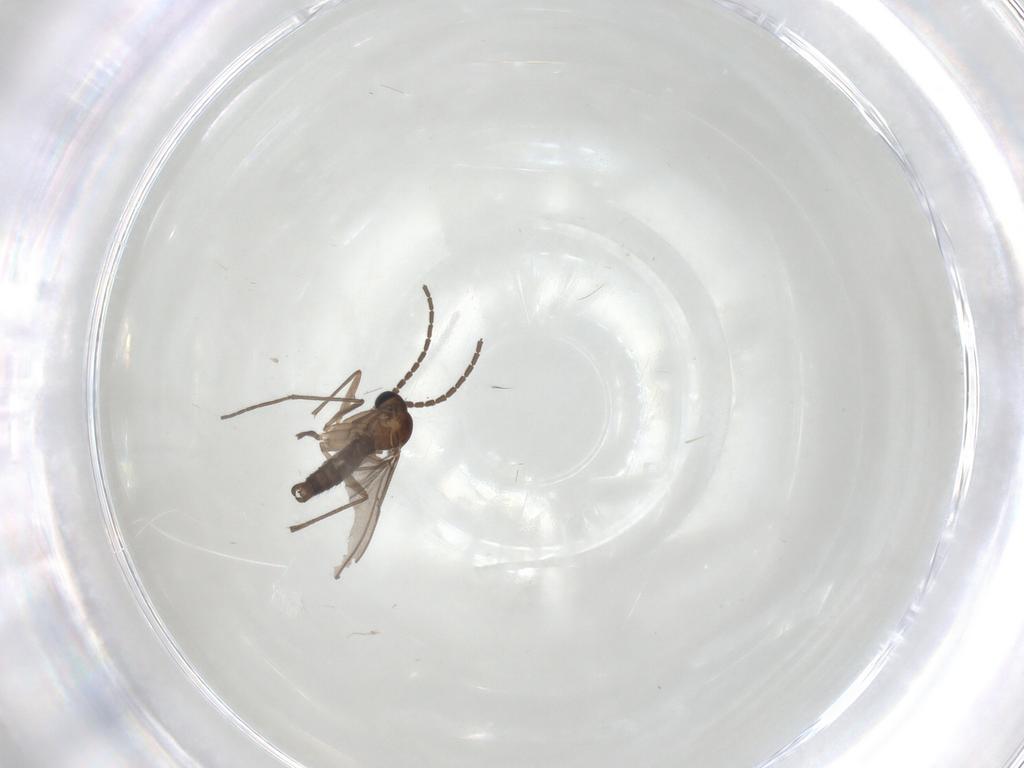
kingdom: Animalia
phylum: Arthropoda
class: Insecta
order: Diptera
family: Sciaridae
